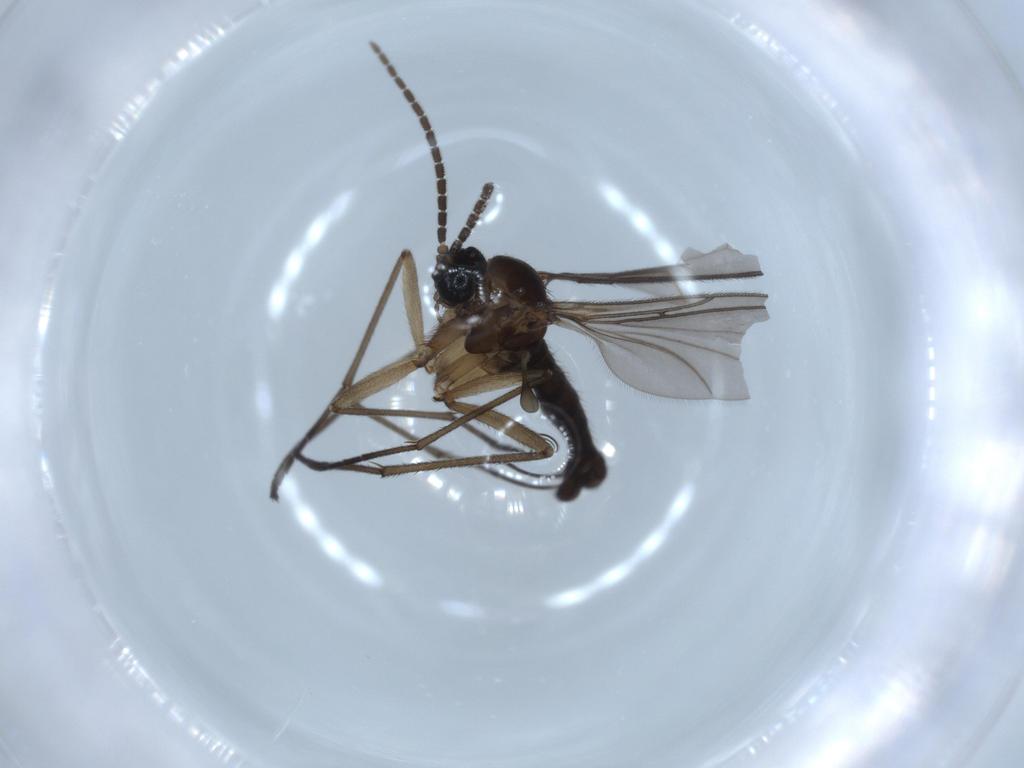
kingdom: Animalia
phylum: Arthropoda
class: Insecta
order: Diptera
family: Sciaridae
